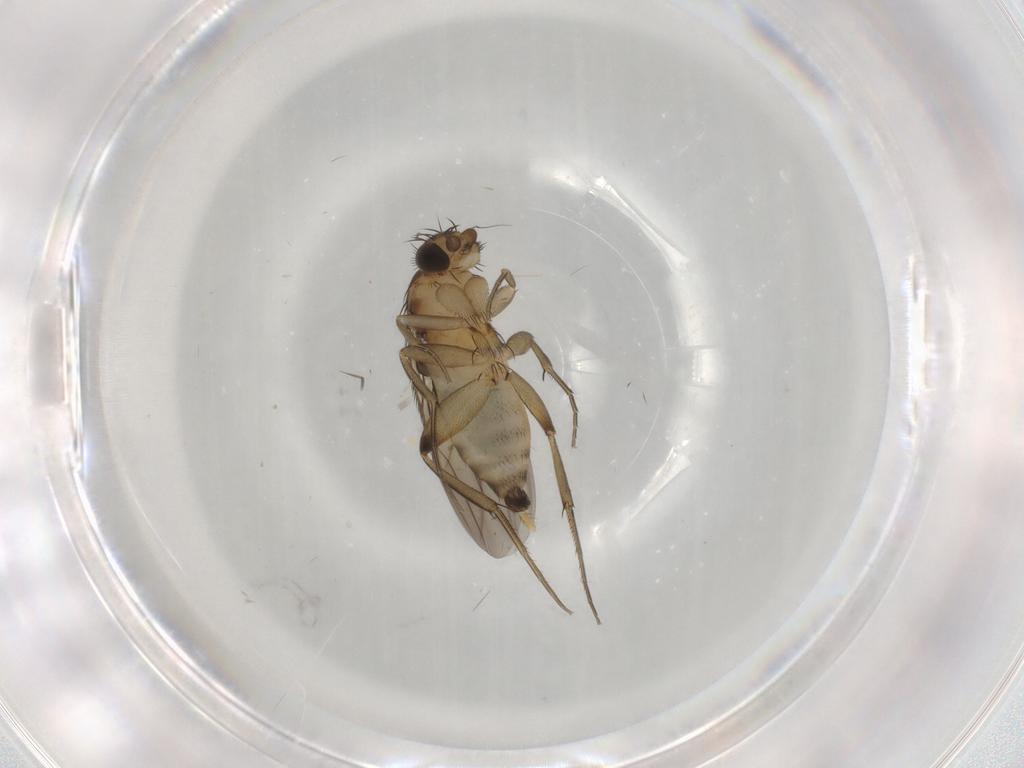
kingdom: Animalia
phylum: Arthropoda
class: Insecta
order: Diptera
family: Phoridae
